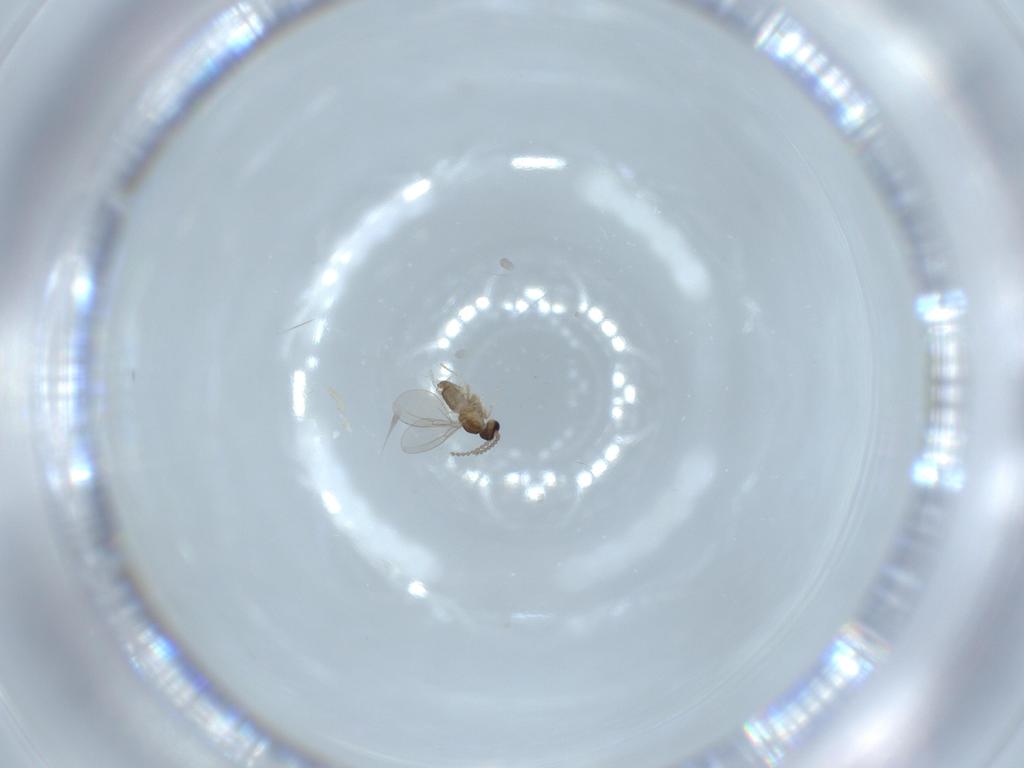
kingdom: Animalia
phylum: Arthropoda
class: Insecta
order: Diptera
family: Cecidomyiidae
